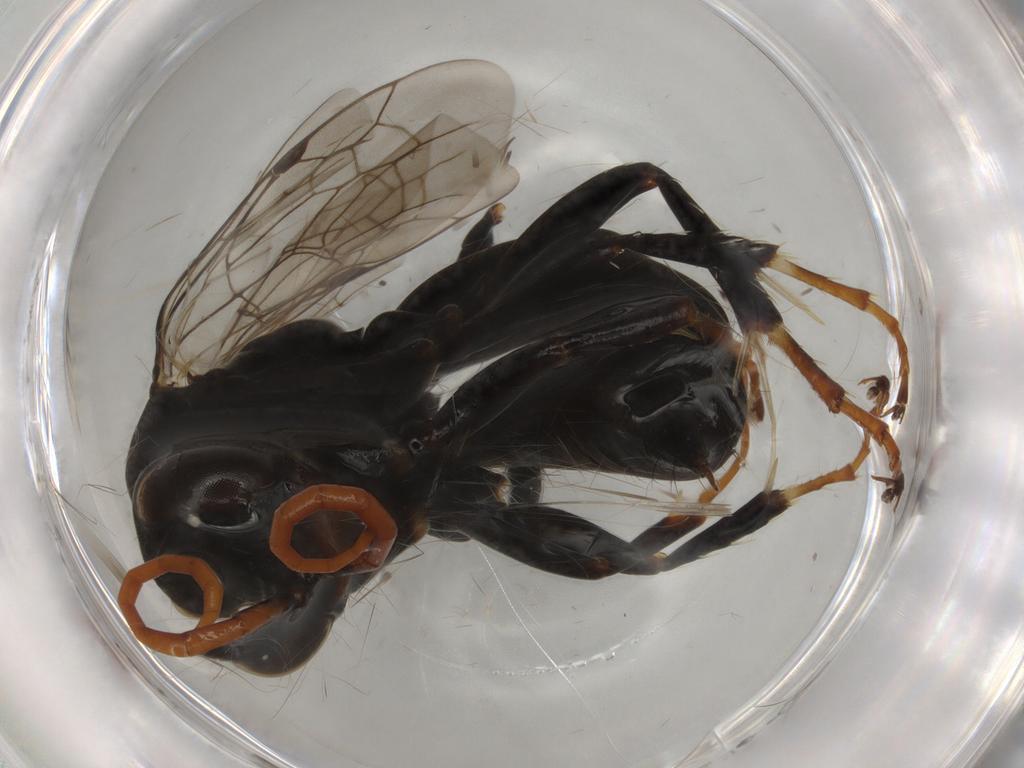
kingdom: Animalia
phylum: Arthropoda
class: Insecta
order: Hymenoptera
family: Pompilidae
